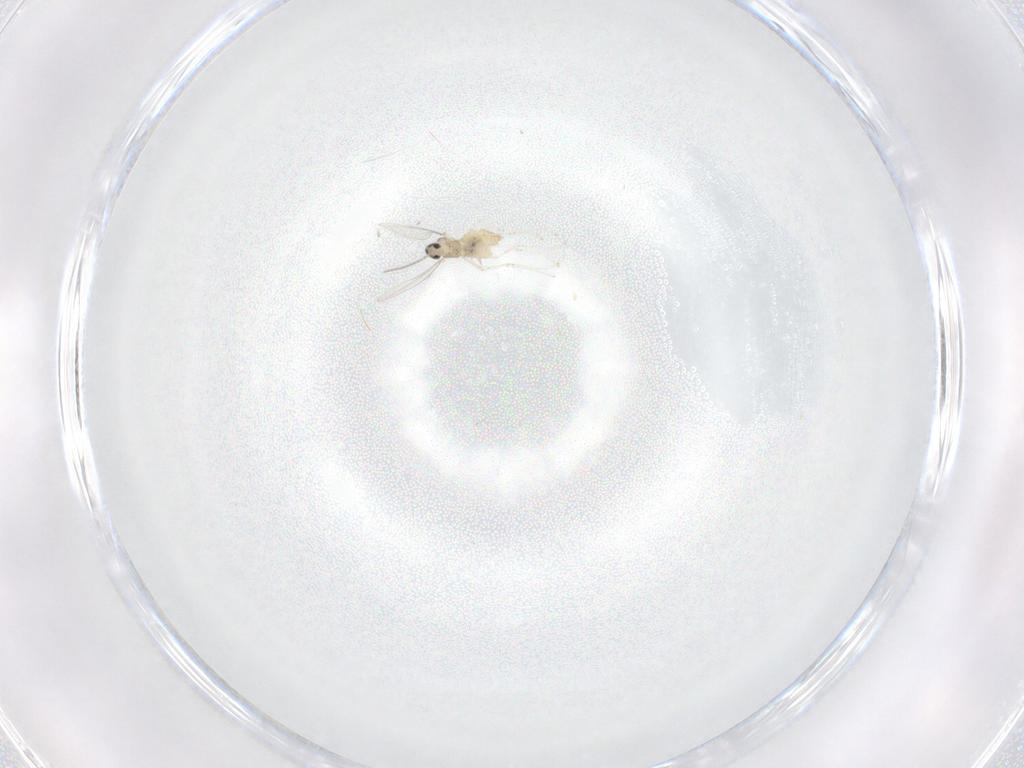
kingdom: Animalia
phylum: Arthropoda
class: Insecta
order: Diptera
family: Cecidomyiidae
